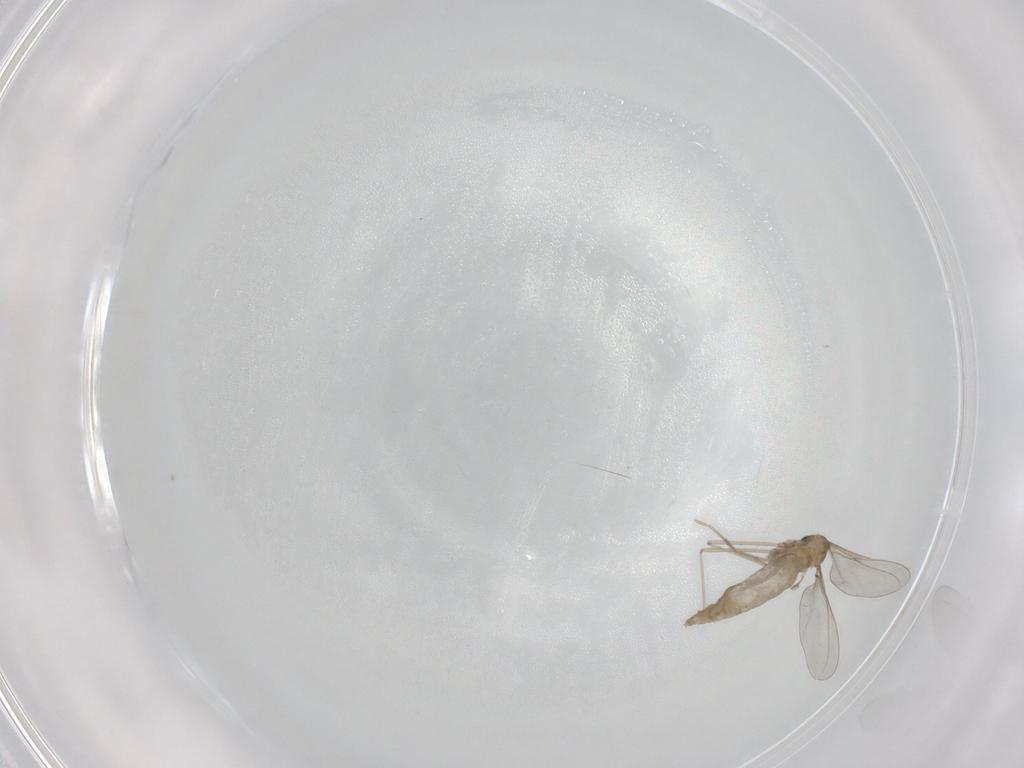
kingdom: Animalia
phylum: Arthropoda
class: Insecta
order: Diptera
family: Cecidomyiidae
